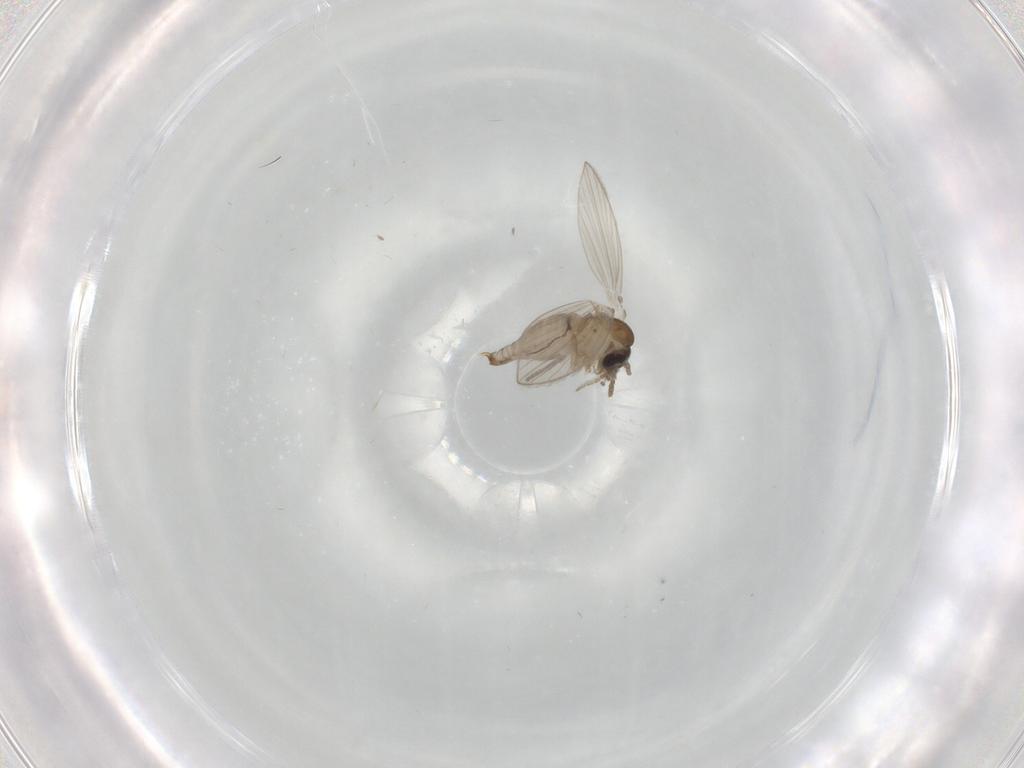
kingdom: Animalia
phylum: Arthropoda
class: Insecta
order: Diptera
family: Psychodidae
